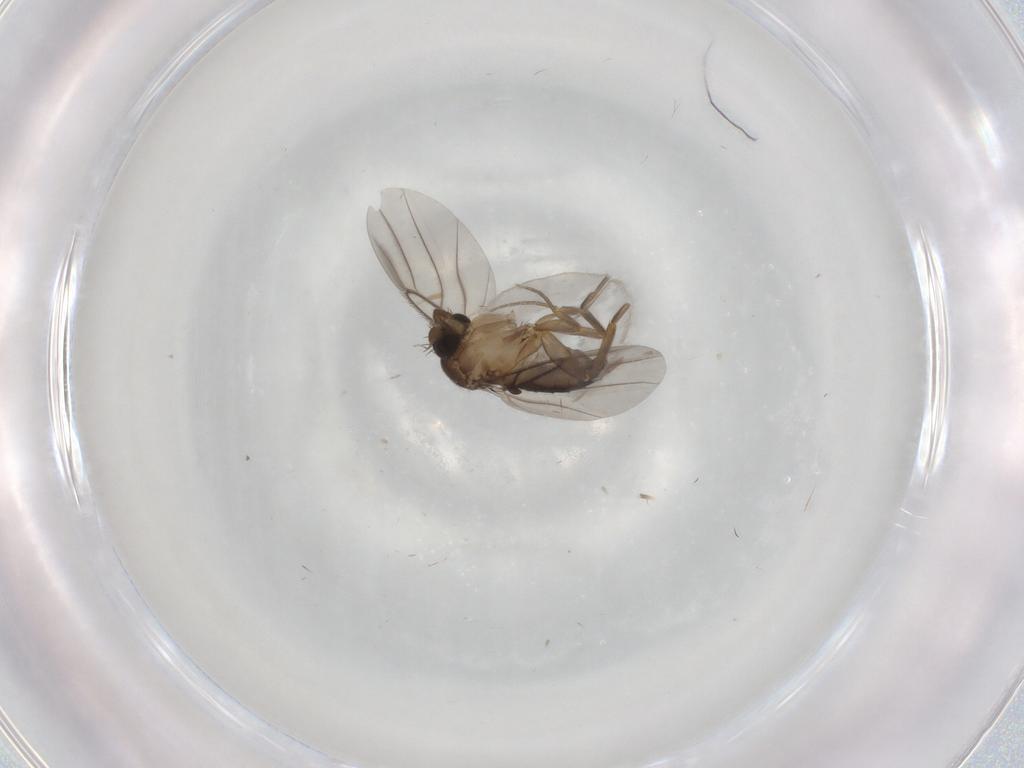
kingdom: Animalia
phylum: Arthropoda
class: Insecta
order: Diptera
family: Cecidomyiidae
